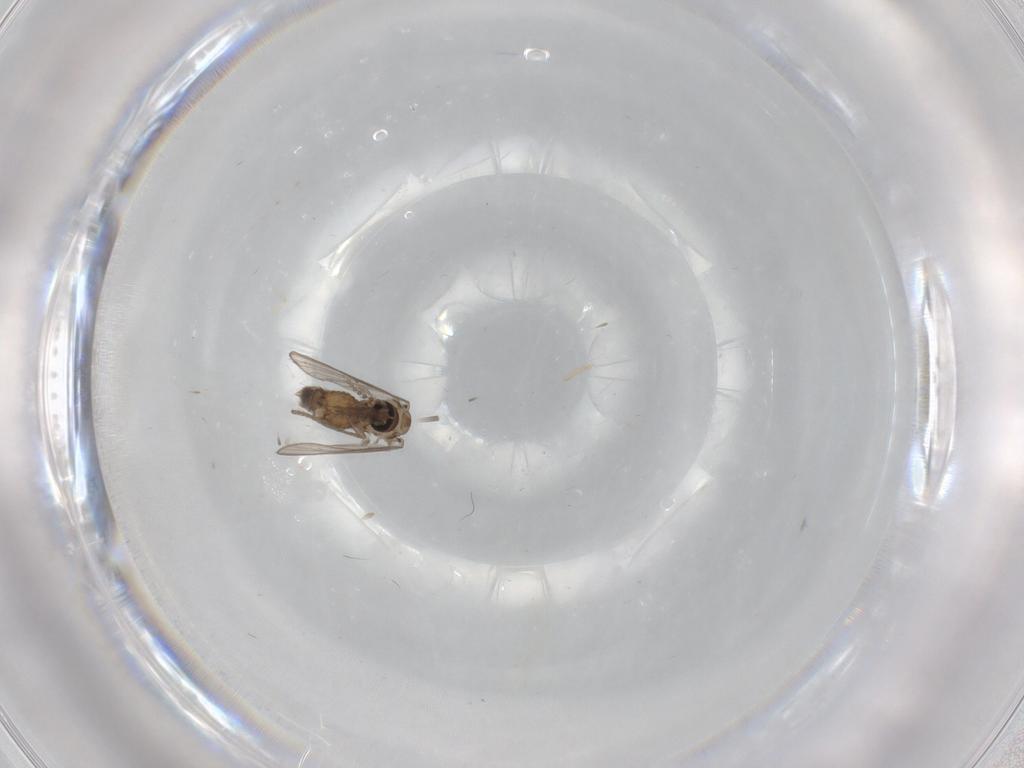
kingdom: Animalia
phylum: Arthropoda
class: Insecta
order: Diptera
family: Psychodidae
